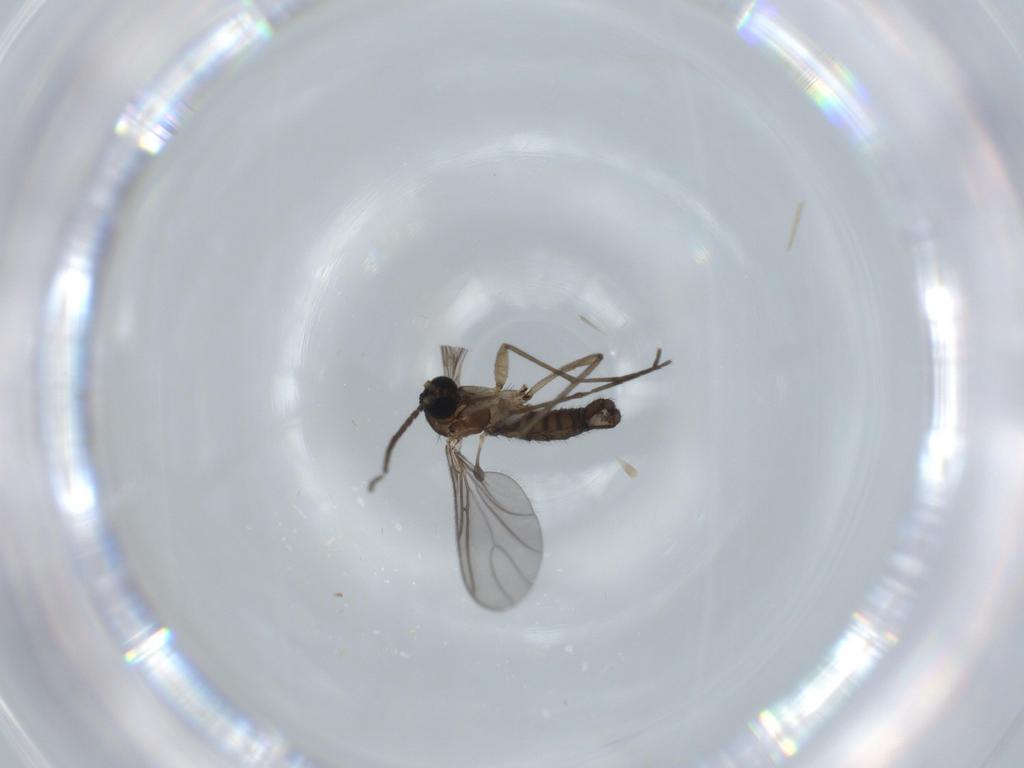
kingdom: Animalia
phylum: Arthropoda
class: Insecta
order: Diptera
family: Sciaridae
